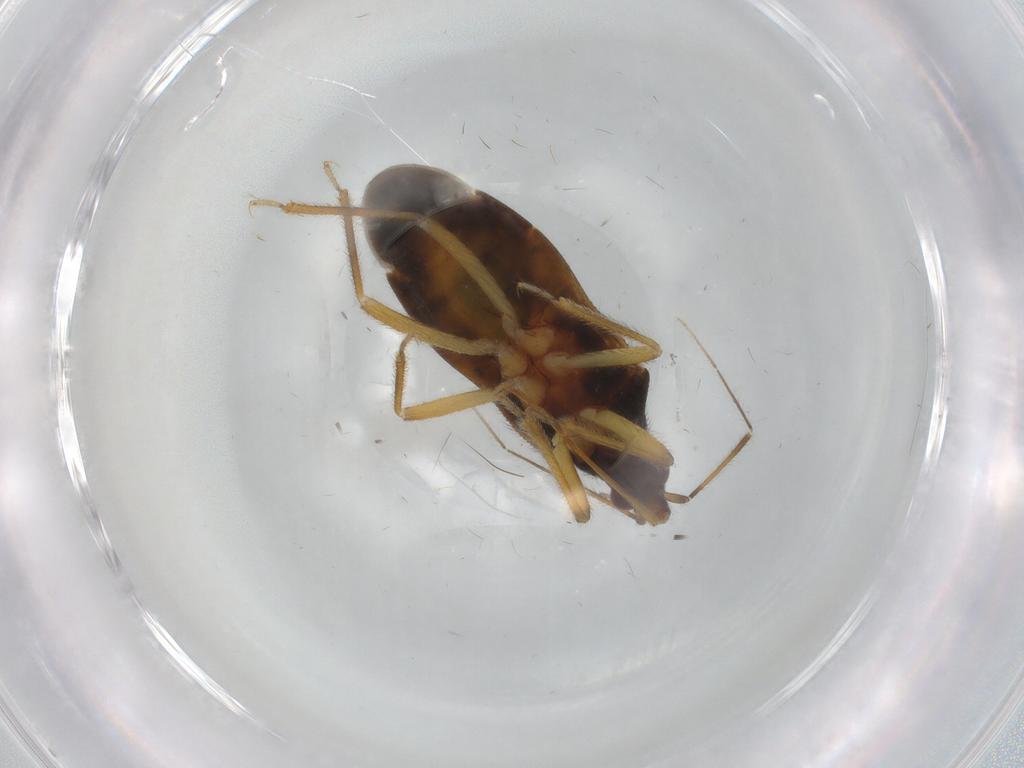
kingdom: Animalia
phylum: Arthropoda
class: Insecta
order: Hemiptera
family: Anthocoridae
